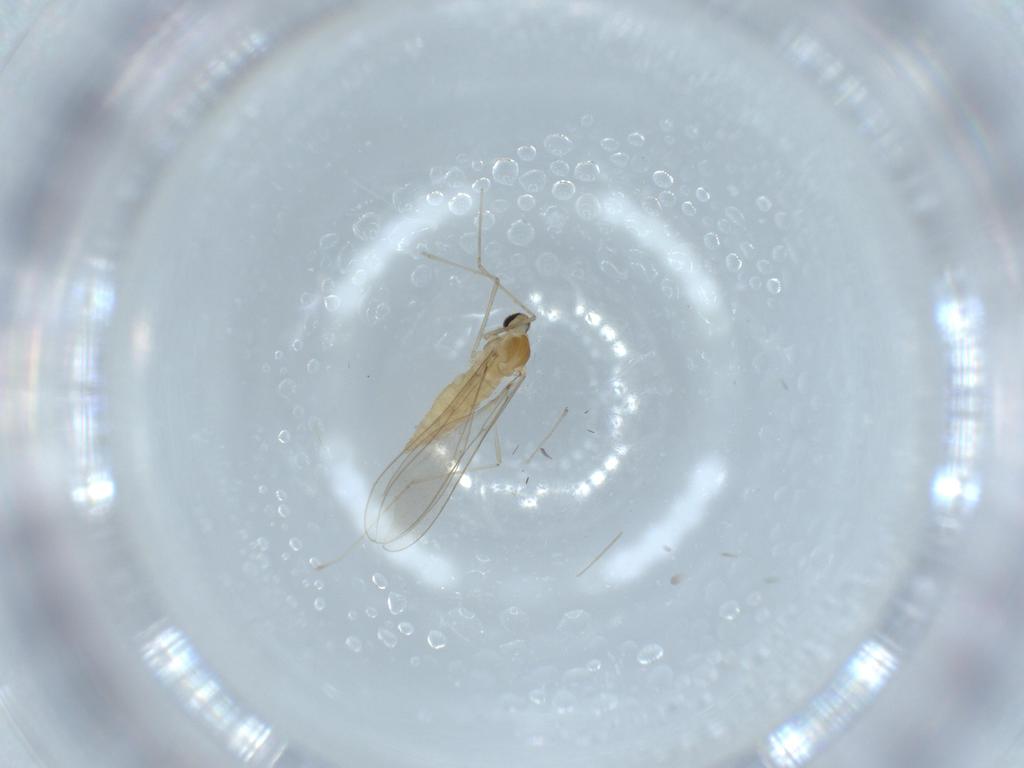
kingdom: Animalia
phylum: Arthropoda
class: Insecta
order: Diptera
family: Cecidomyiidae
